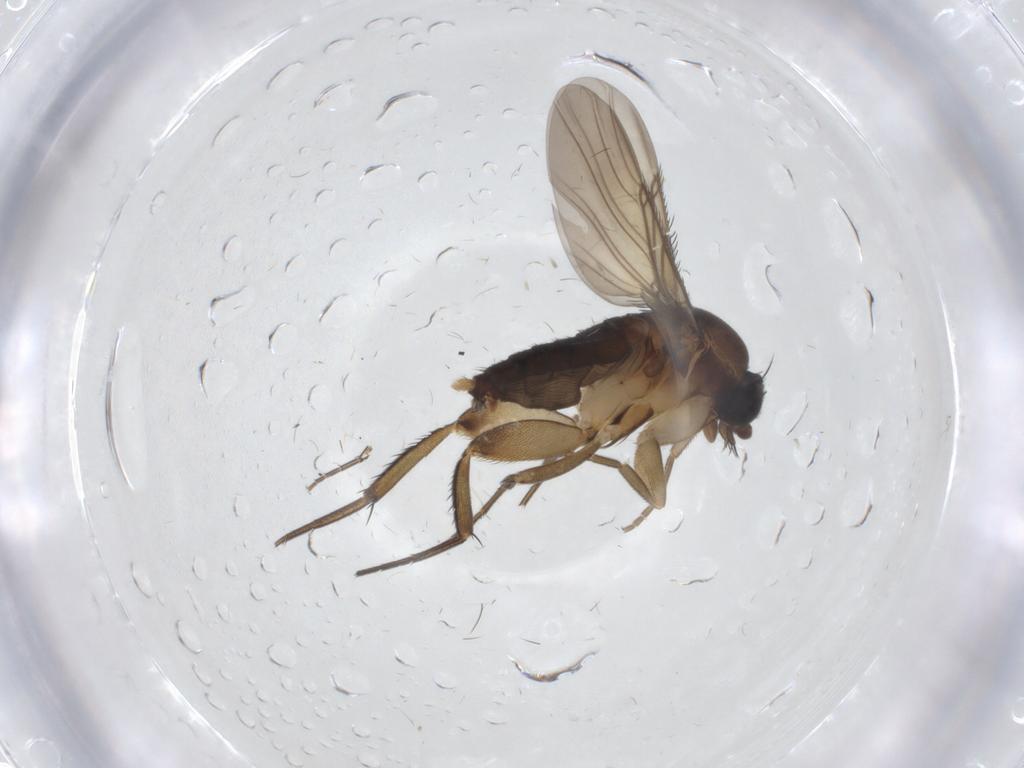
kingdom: Animalia
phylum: Arthropoda
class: Insecta
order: Diptera
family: Phoridae
